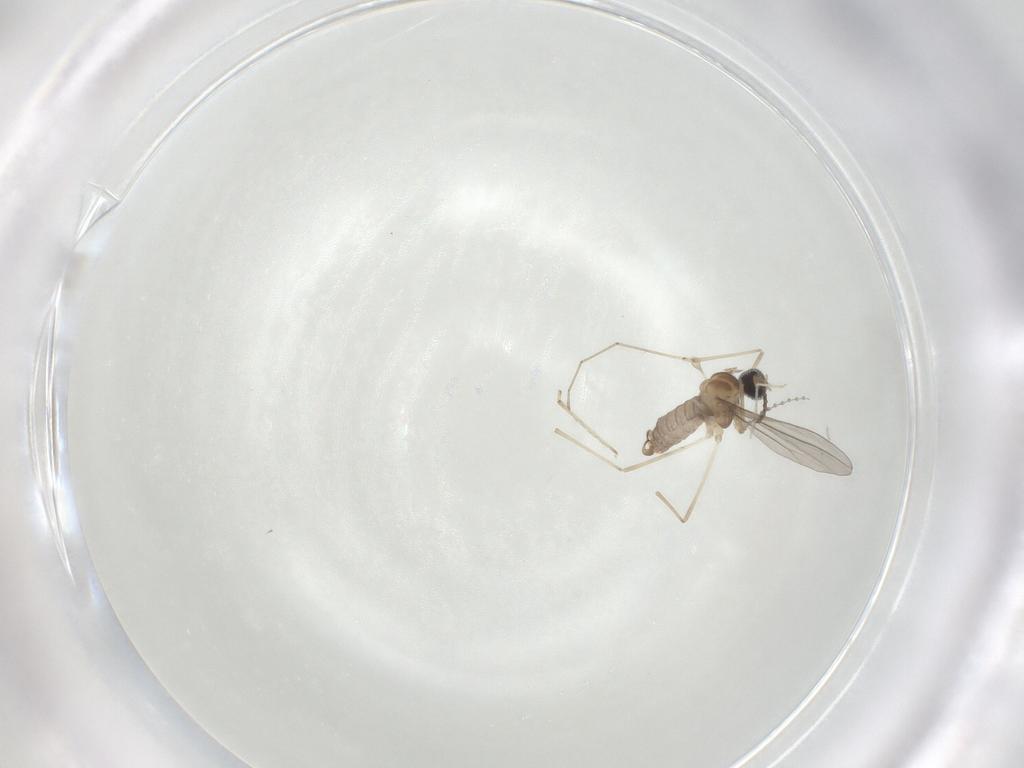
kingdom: Animalia
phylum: Arthropoda
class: Insecta
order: Diptera
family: Cecidomyiidae
